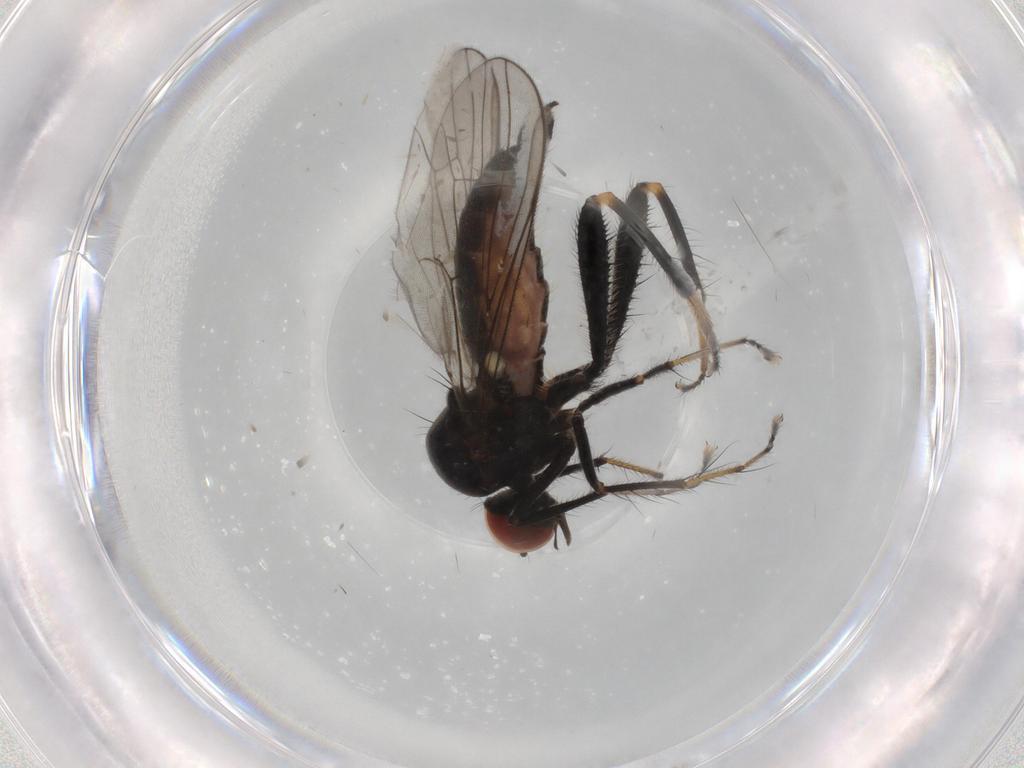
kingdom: Animalia
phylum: Arthropoda
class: Insecta
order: Diptera
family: Hybotidae
